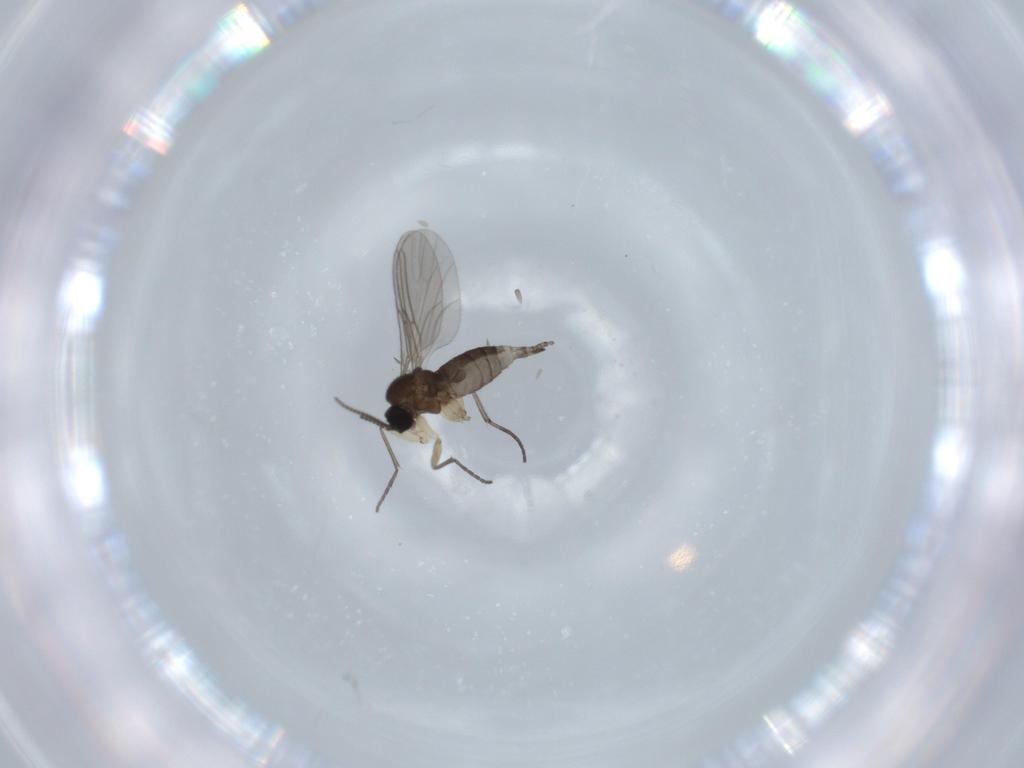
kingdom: Animalia
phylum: Arthropoda
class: Insecta
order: Diptera
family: Sciaridae
